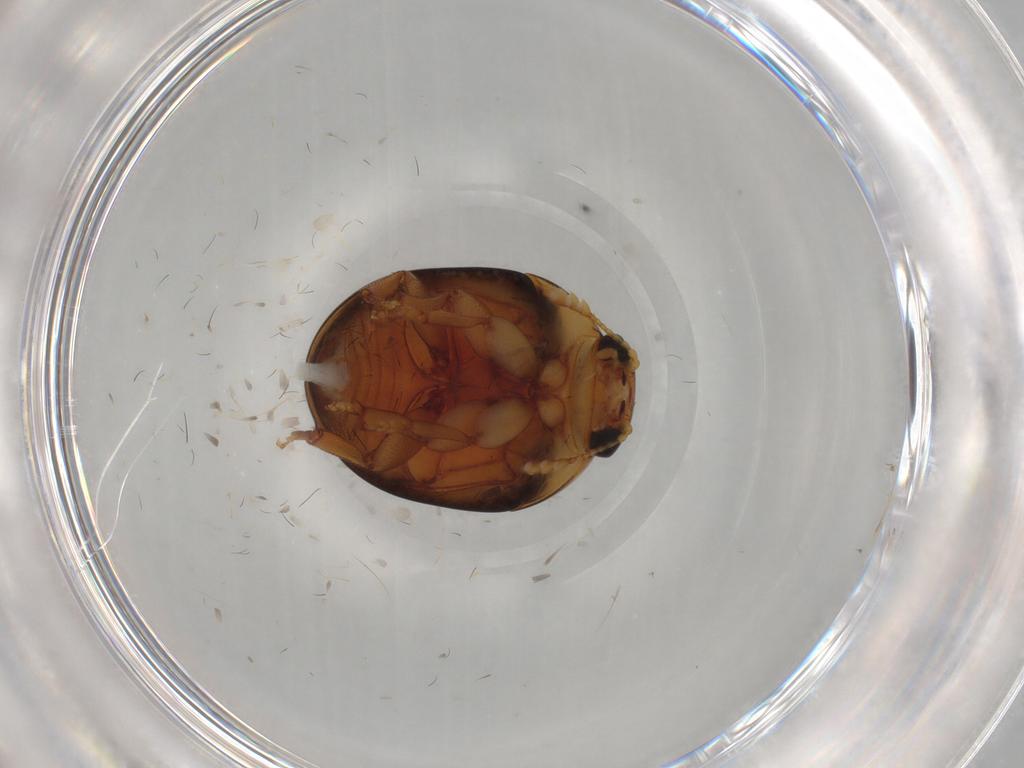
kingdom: Animalia
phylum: Arthropoda
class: Insecta
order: Coleoptera
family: Phalacridae
